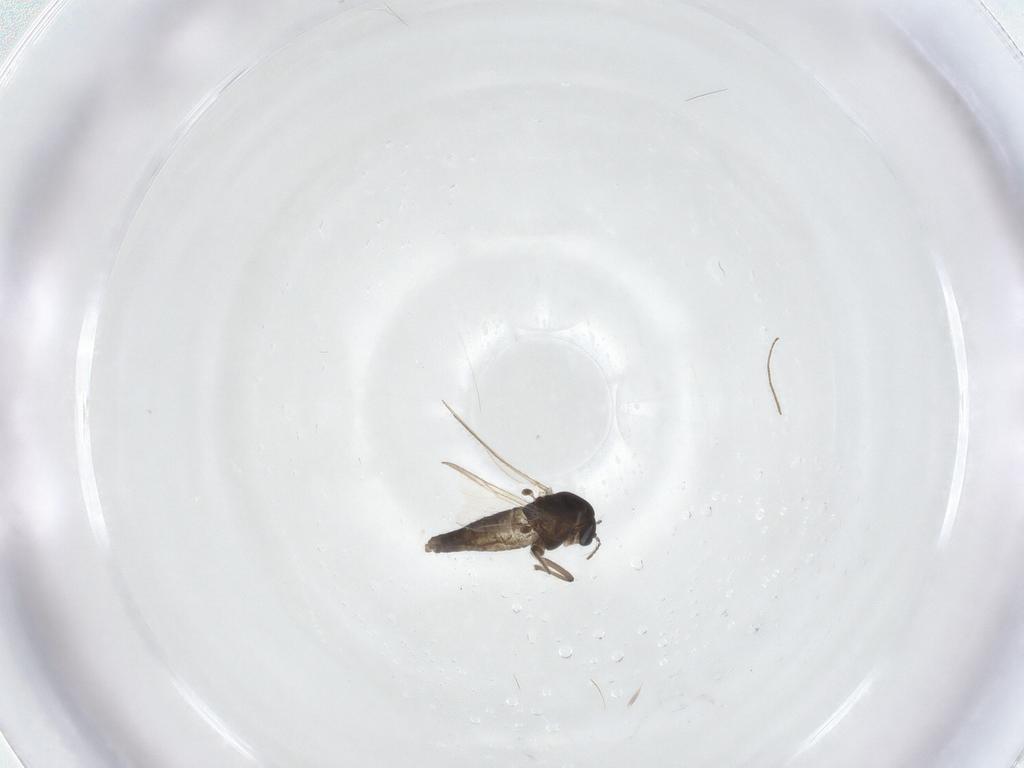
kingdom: Animalia
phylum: Arthropoda
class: Insecta
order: Diptera
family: Chironomidae
